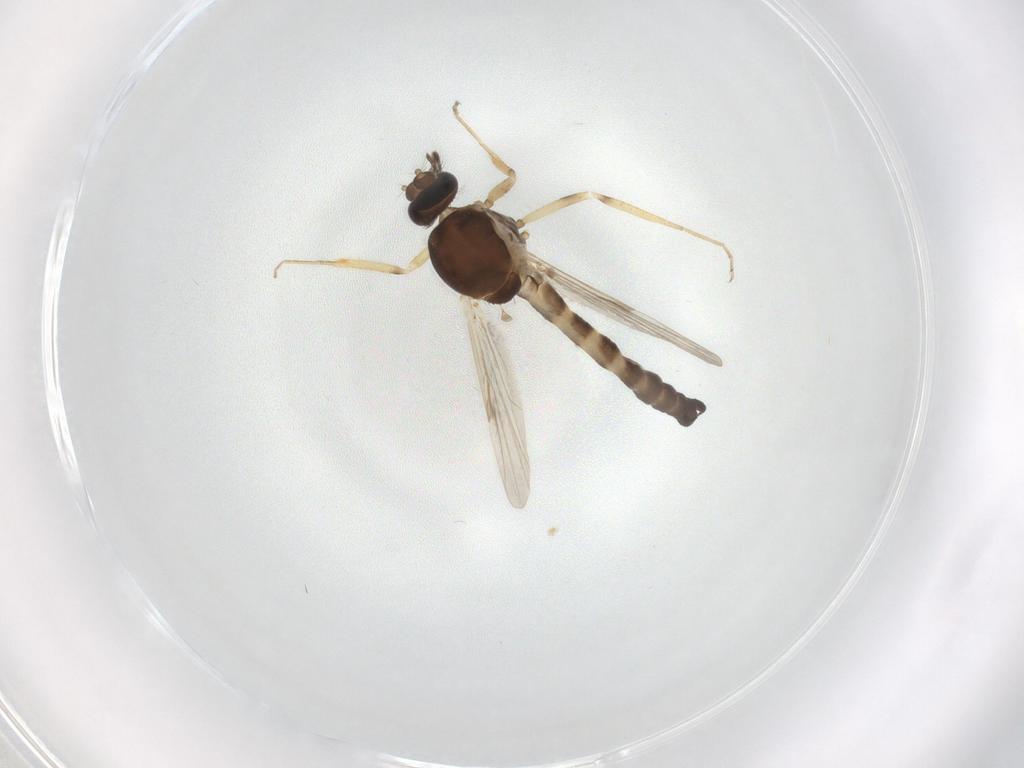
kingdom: Animalia
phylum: Arthropoda
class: Insecta
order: Diptera
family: Ceratopogonidae
